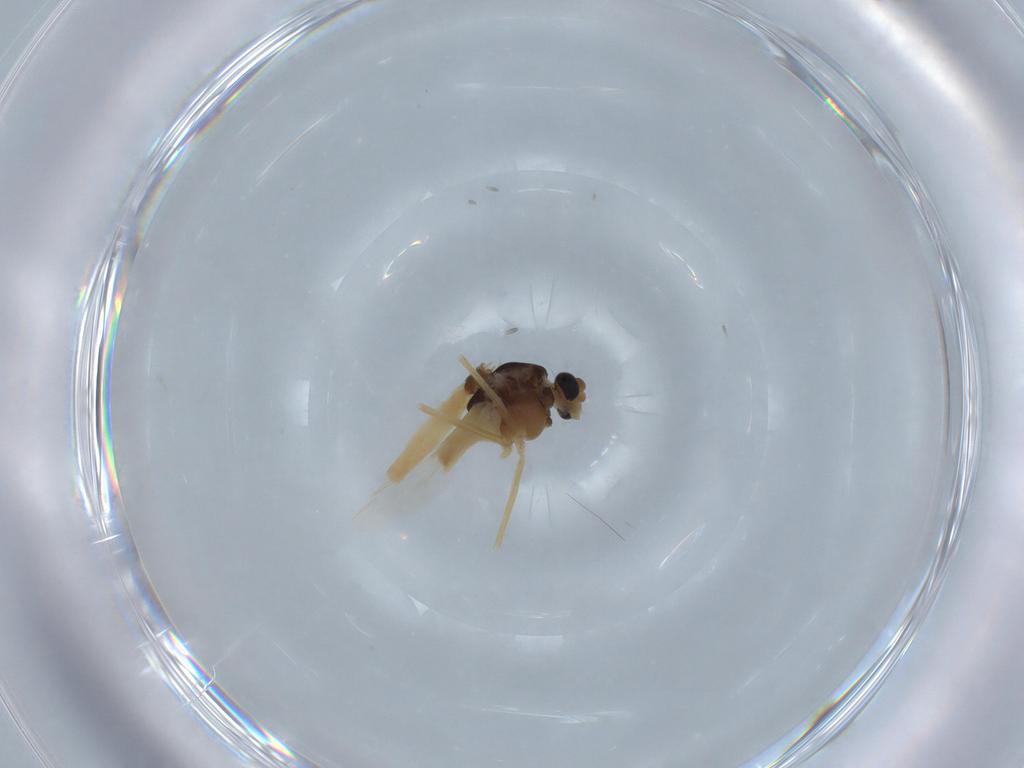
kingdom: Animalia
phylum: Arthropoda
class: Insecta
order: Diptera
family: Chironomidae
